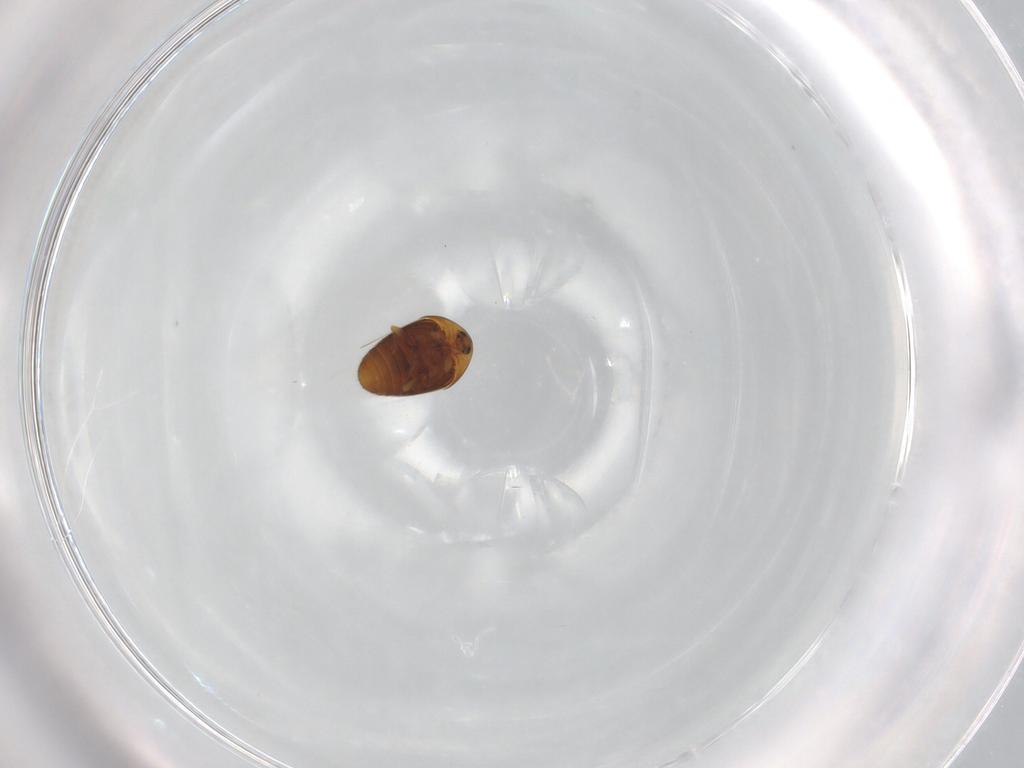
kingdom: Animalia
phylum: Arthropoda
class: Insecta
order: Coleoptera
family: Corylophidae
